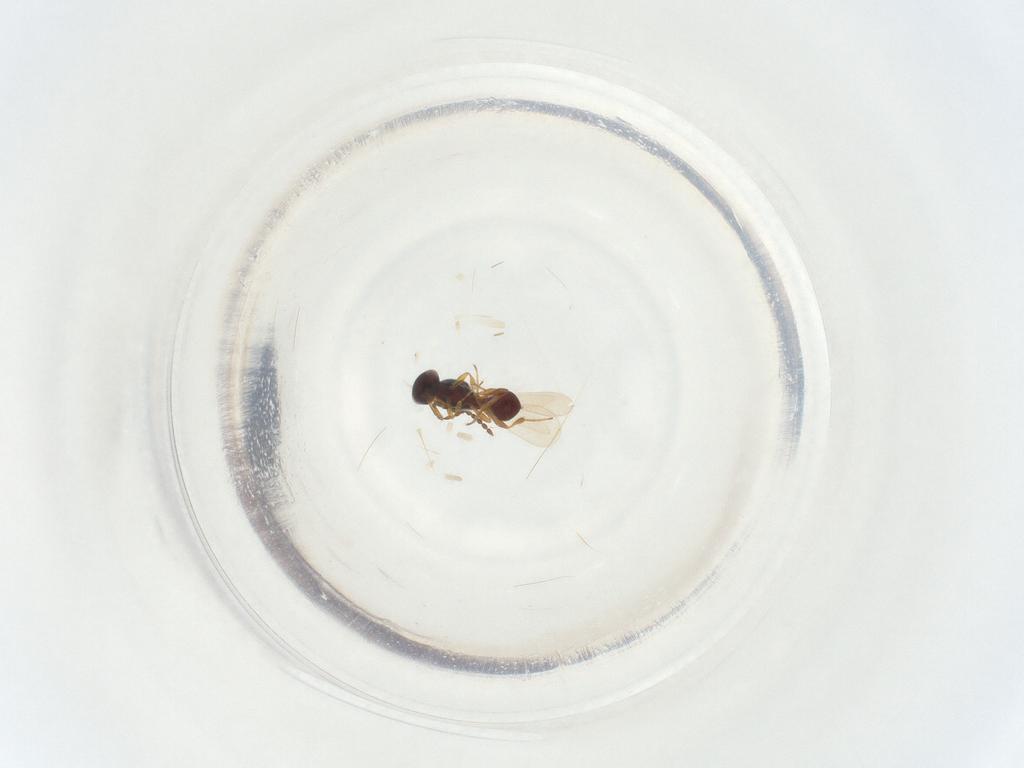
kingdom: Animalia
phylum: Arthropoda
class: Insecta
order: Hymenoptera
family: Platygastridae
